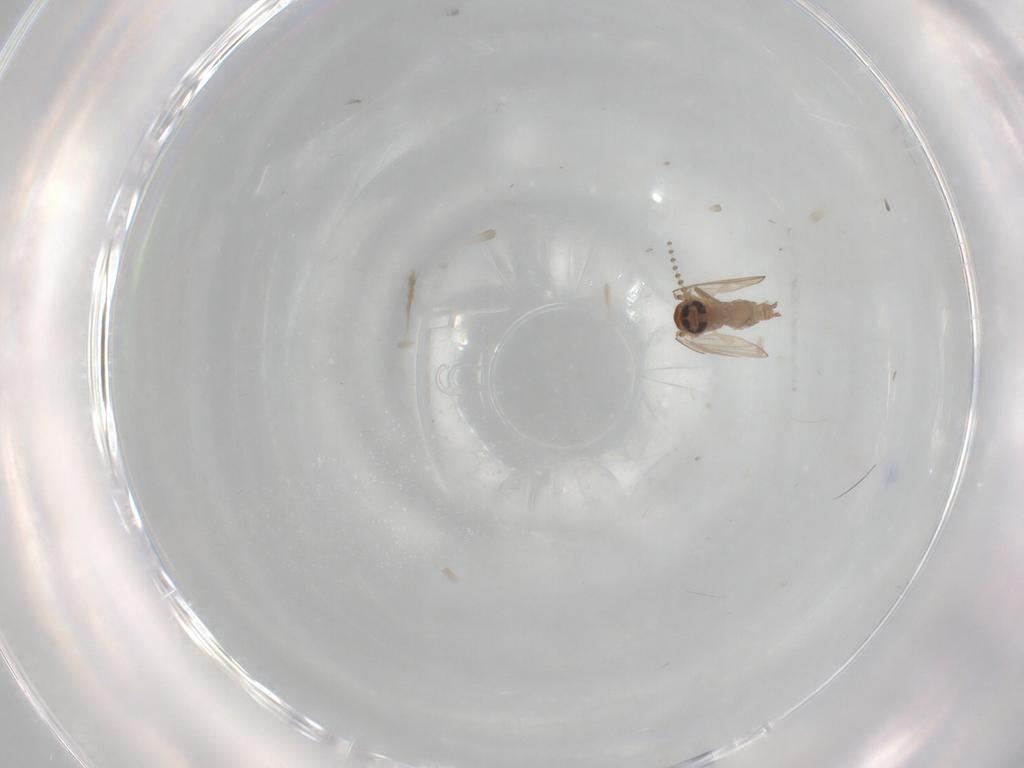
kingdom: Animalia
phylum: Arthropoda
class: Insecta
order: Diptera
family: Psychodidae
